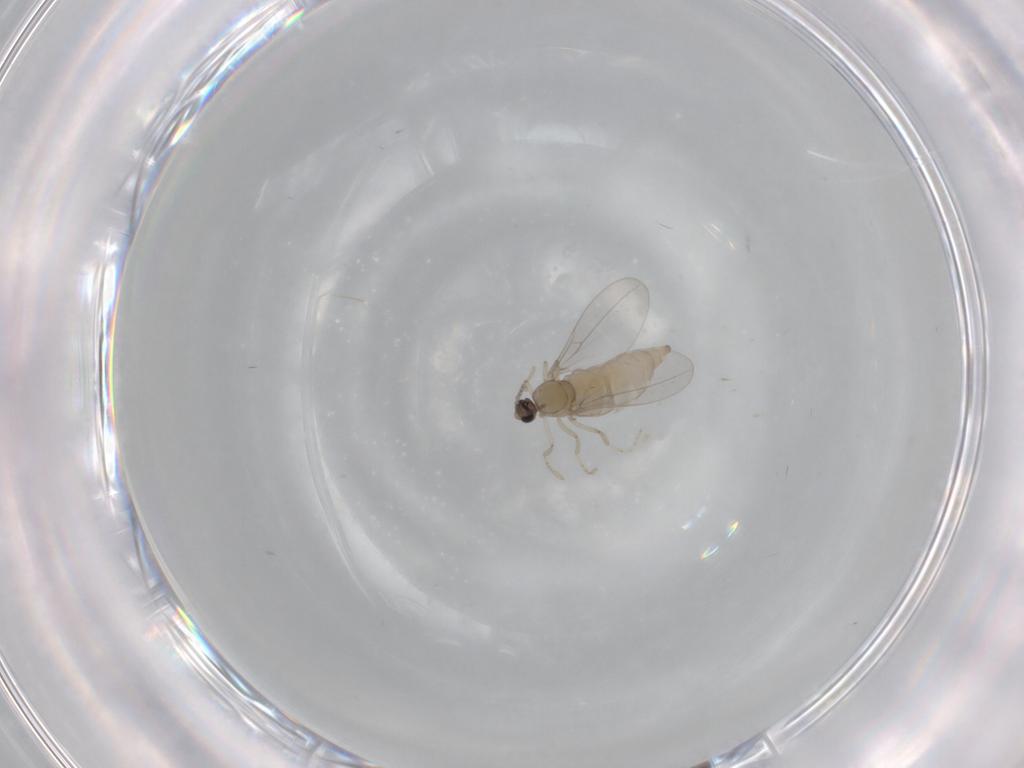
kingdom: Animalia
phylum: Arthropoda
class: Insecta
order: Diptera
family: Cecidomyiidae
